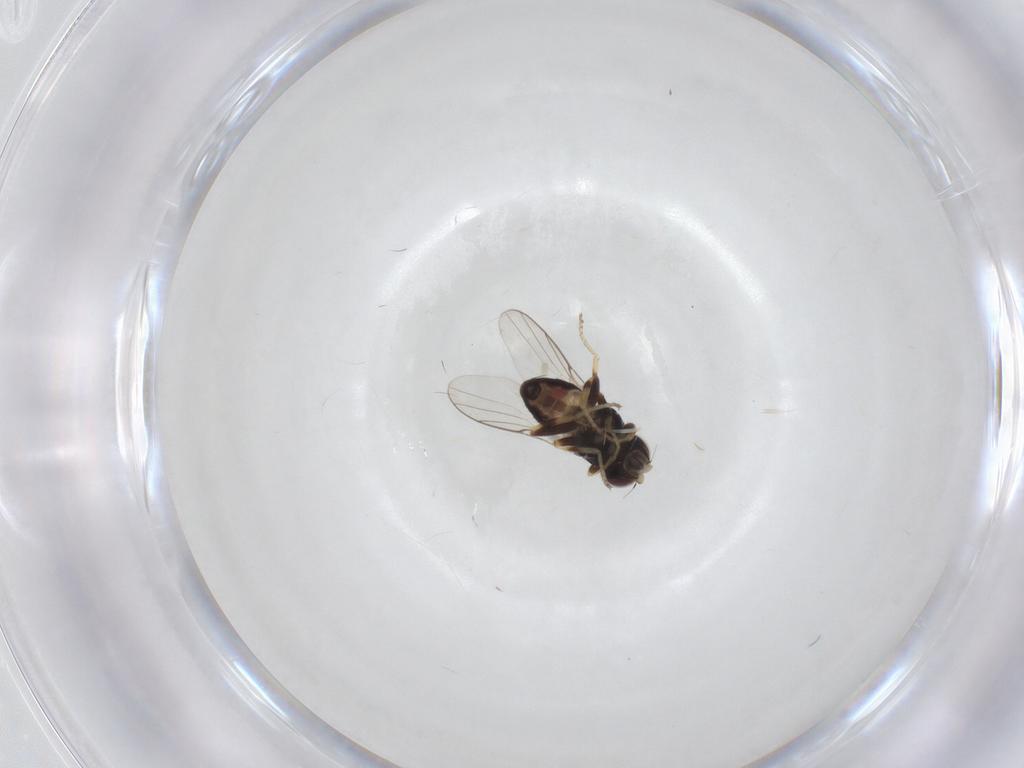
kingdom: Animalia
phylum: Arthropoda
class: Insecta
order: Diptera
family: Chloropidae
